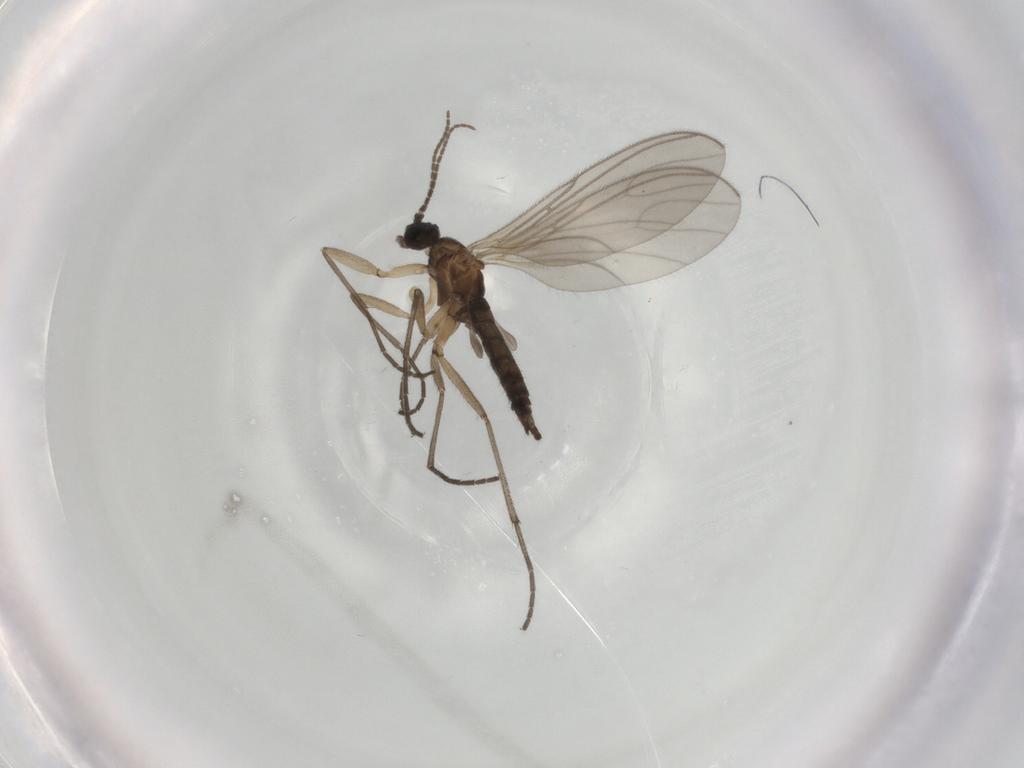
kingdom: Animalia
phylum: Arthropoda
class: Insecta
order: Diptera
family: Sciaridae
